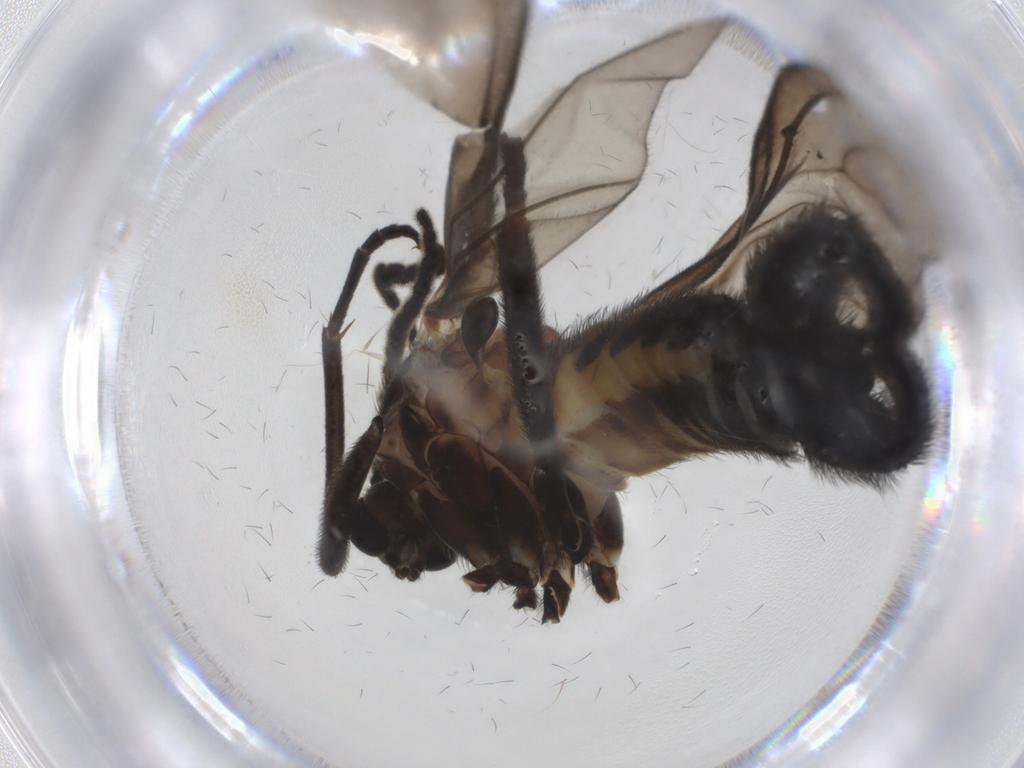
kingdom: Animalia
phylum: Arthropoda
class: Insecta
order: Diptera
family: Sciaridae
